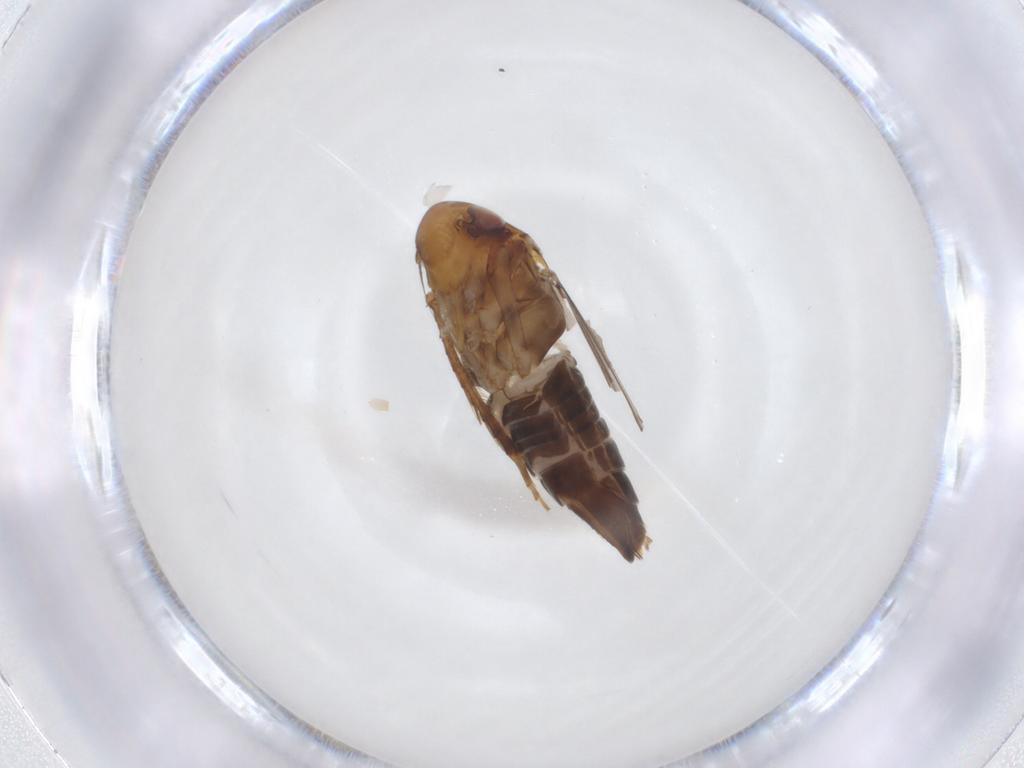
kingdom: Animalia
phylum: Arthropoda
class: Insecta
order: Hemiptera
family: Cicadellidae
